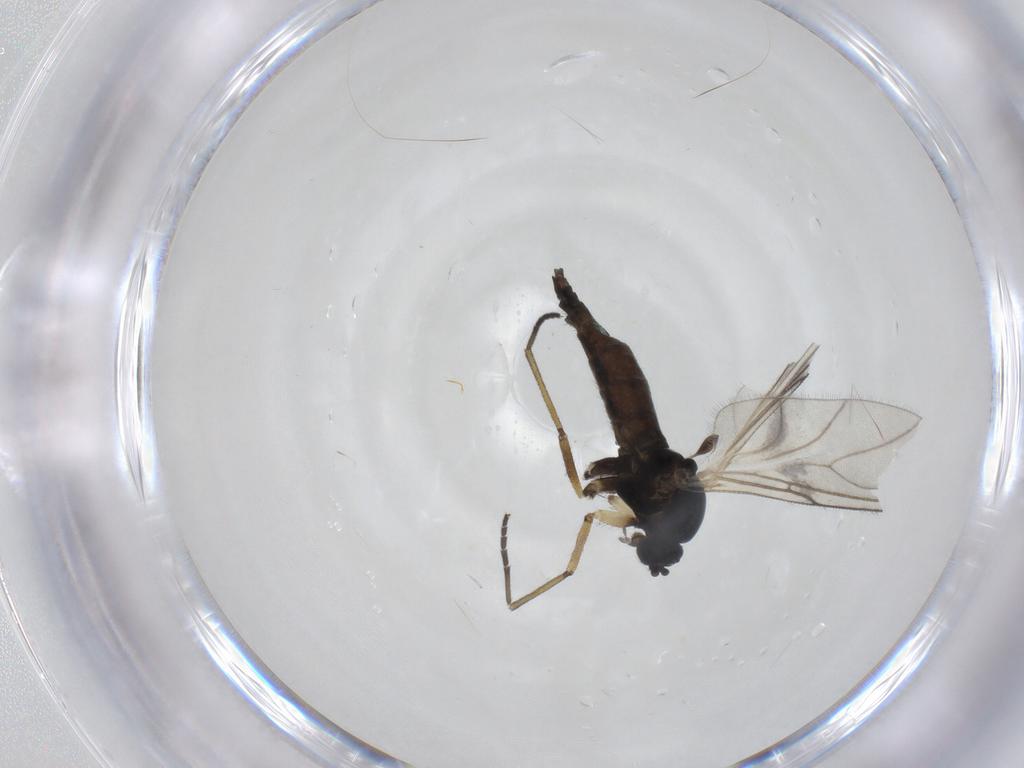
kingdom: Animalia
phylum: Arthropoda
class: Insecta
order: Diptera
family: Sciaridae
